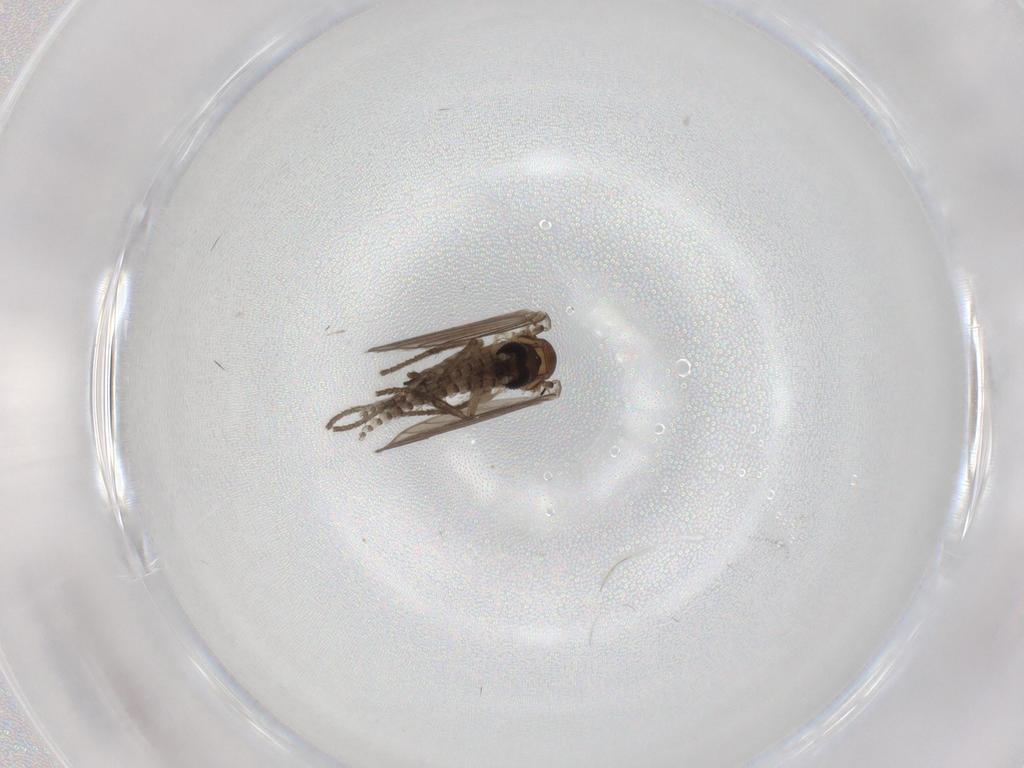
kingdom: Animalia
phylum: Arthropoda
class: Insecta
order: Diptera
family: Psychodidae
